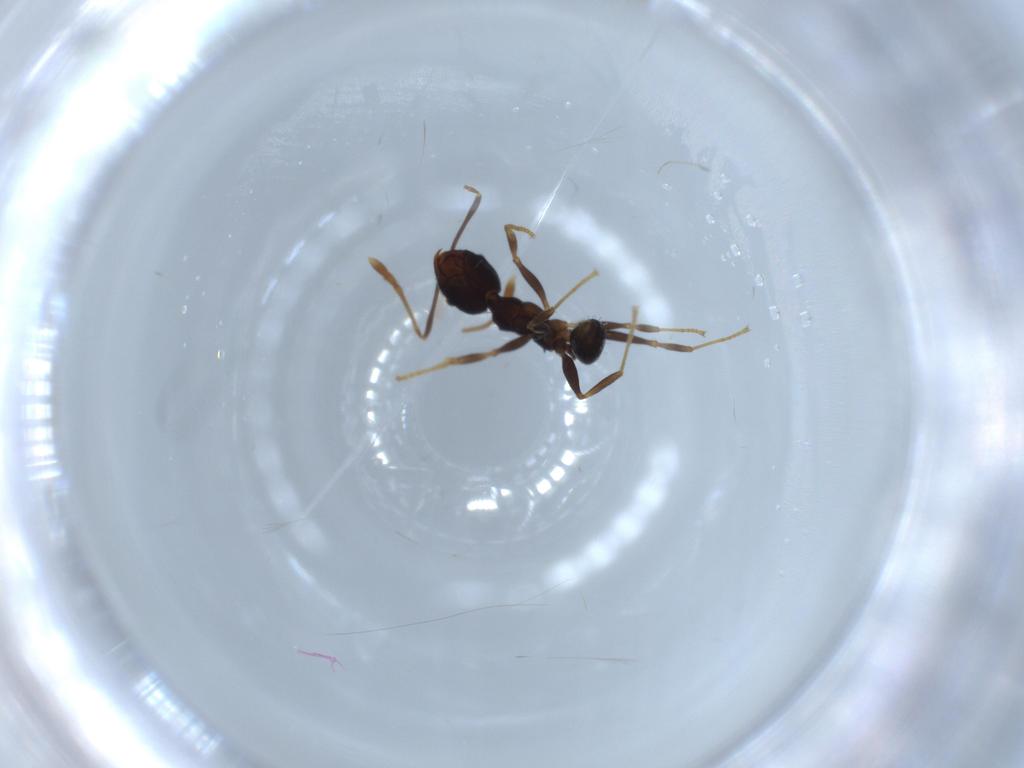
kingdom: Animalia
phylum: Arthropoda
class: Insecta
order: Hymenoptera
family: Formicidae
